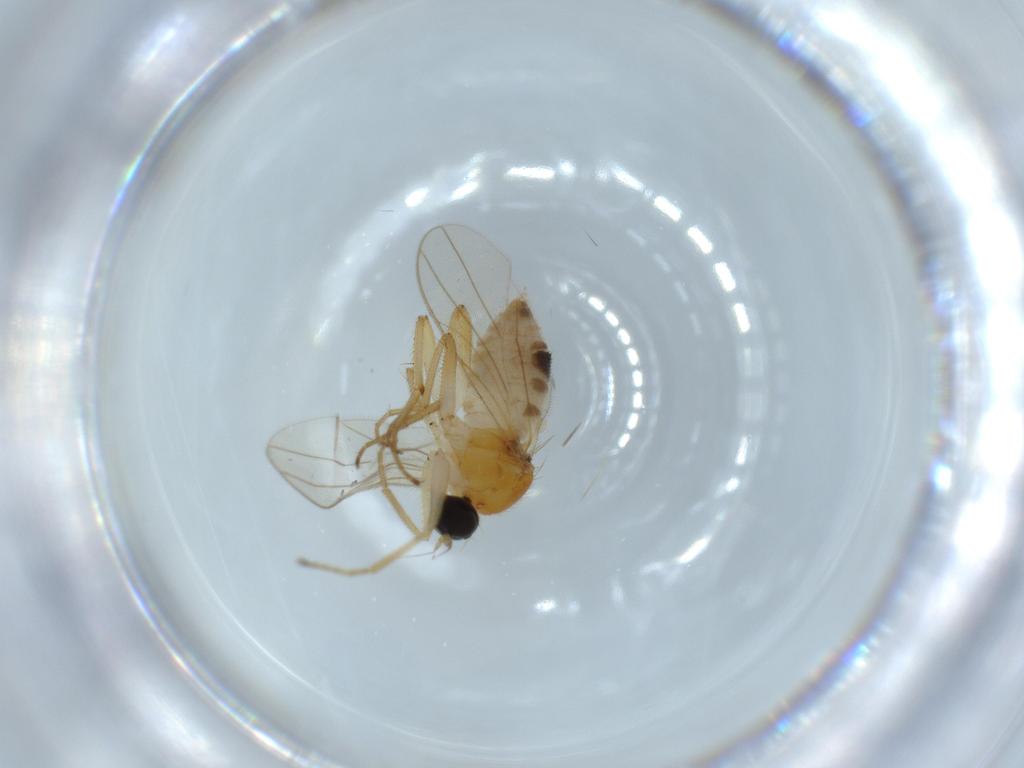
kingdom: Animalia
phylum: Arthropoda
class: Insecta
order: Diptera
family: Hybotidae
